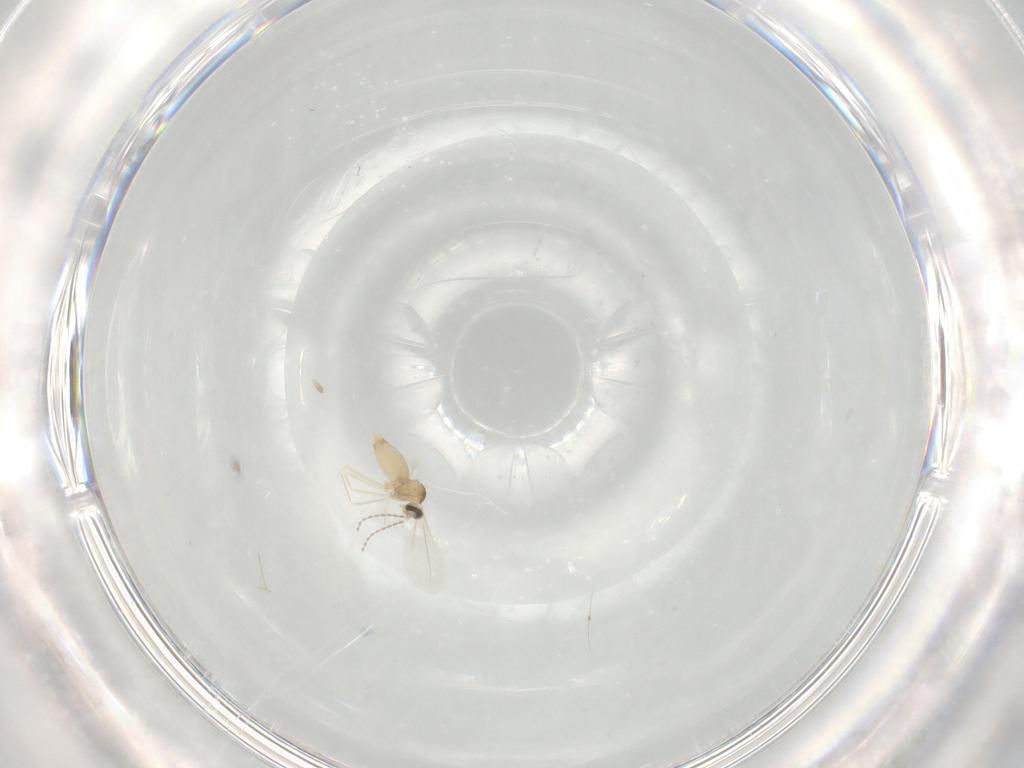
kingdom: Animalia
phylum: Arthropoda
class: Insecta
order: Diptera
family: Cecidomyiidae
